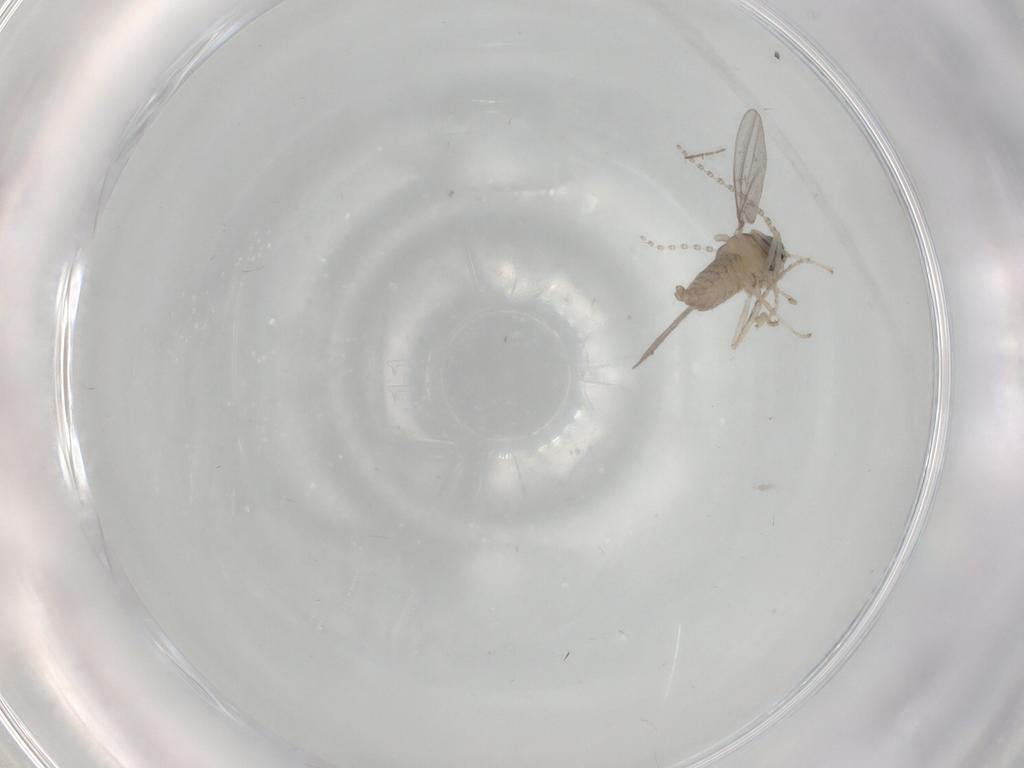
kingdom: Animalia
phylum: Arthropoda
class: Insecta
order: Diptera
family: Cecidomyiidae
